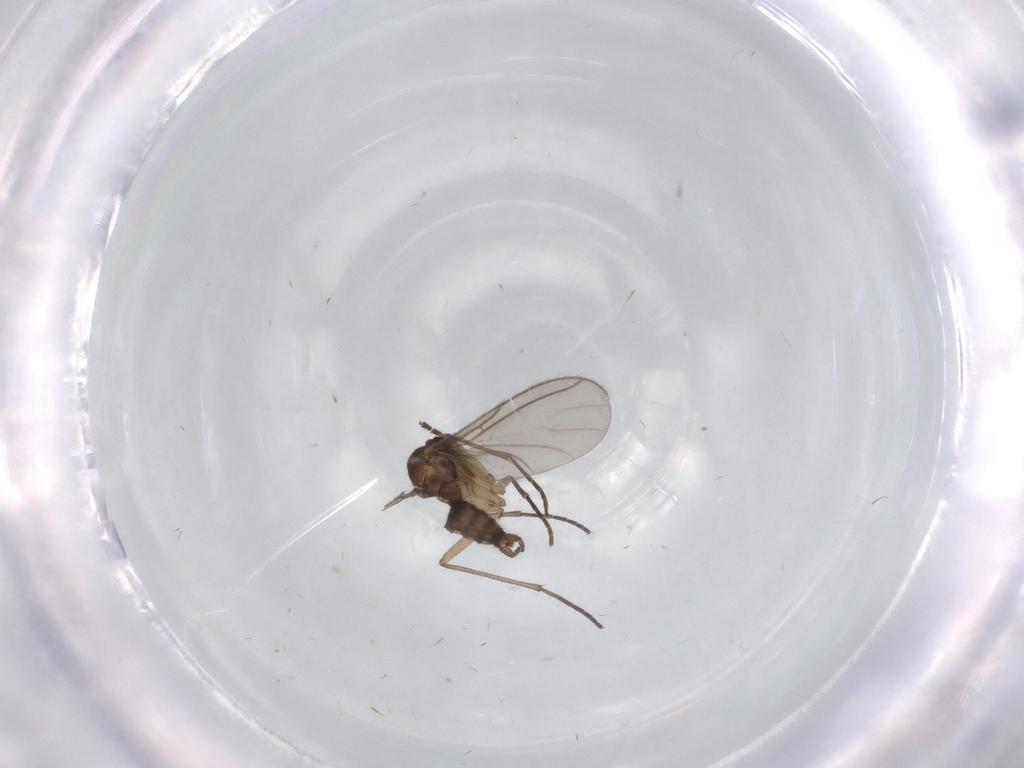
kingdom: Animalia
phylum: Arthropoda
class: Insecta
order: Diptera
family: Sciaridae
